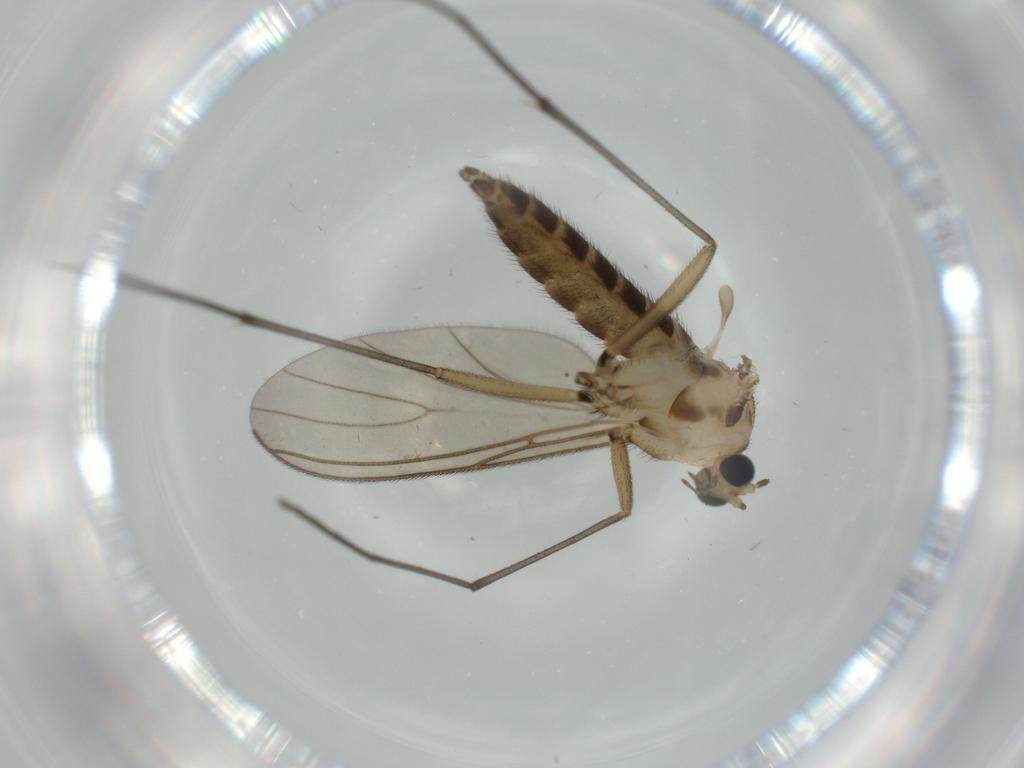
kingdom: Animalia
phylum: Arthropoda
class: Insecta
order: Diptera
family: Sciaridae
